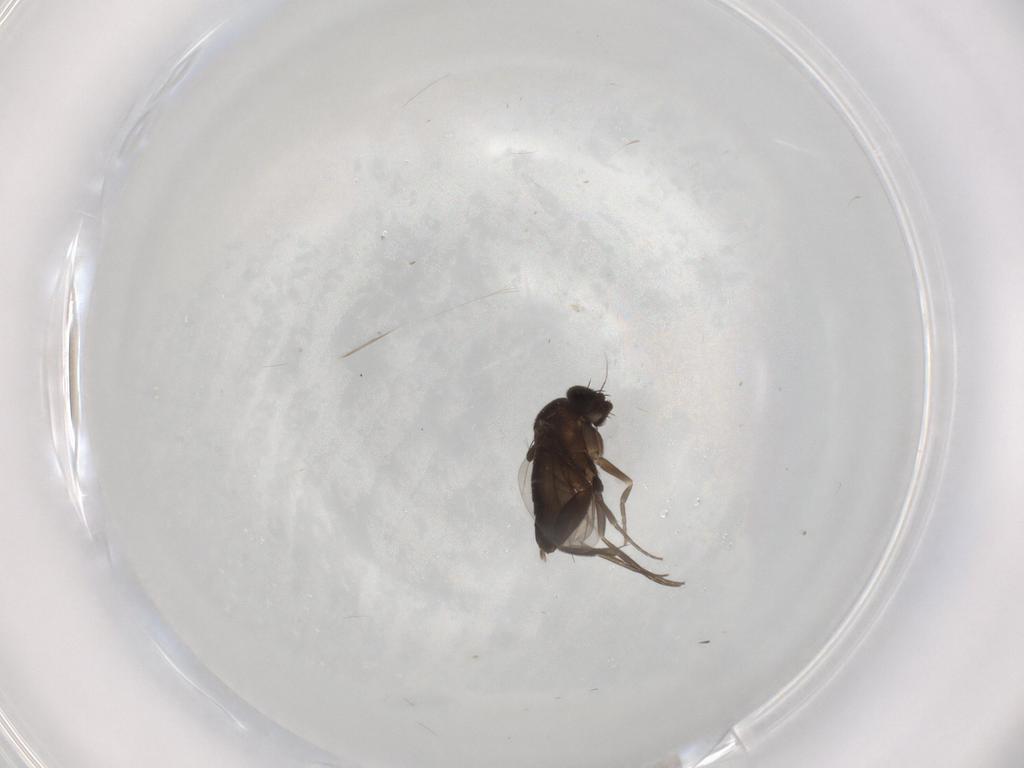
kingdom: Animalia
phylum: Arthropoda
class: Insecta
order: Diptera
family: Phoridae
